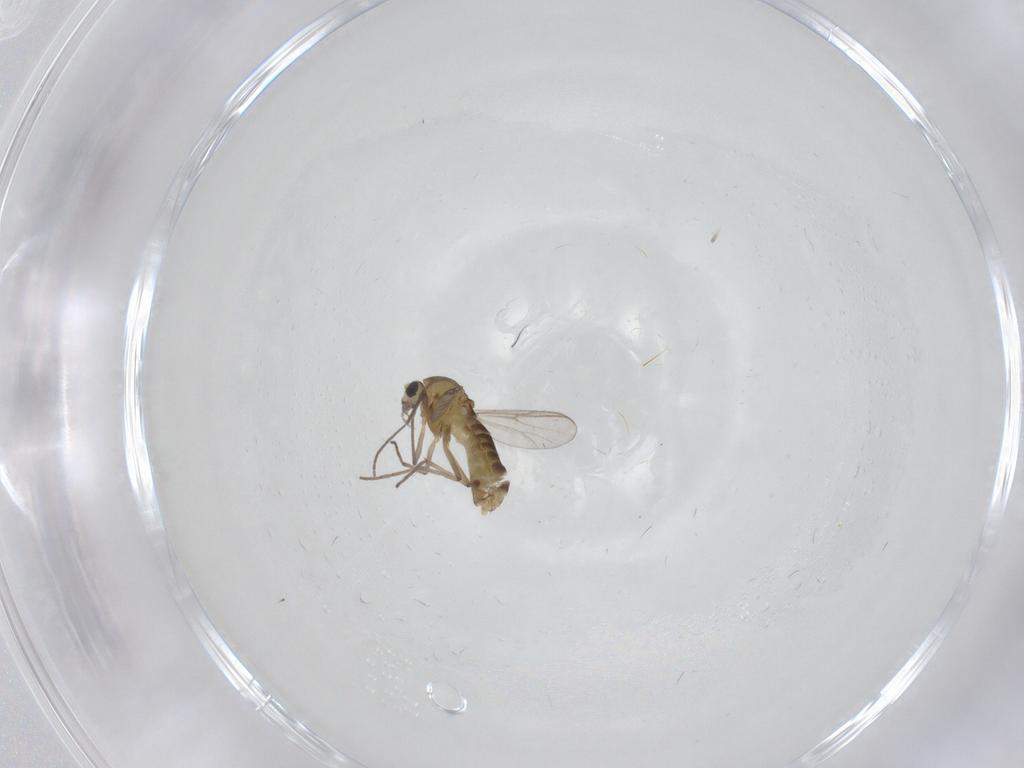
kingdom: Animalia
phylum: Arthropoda
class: Insecta
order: Diptera
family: Chironomidae
